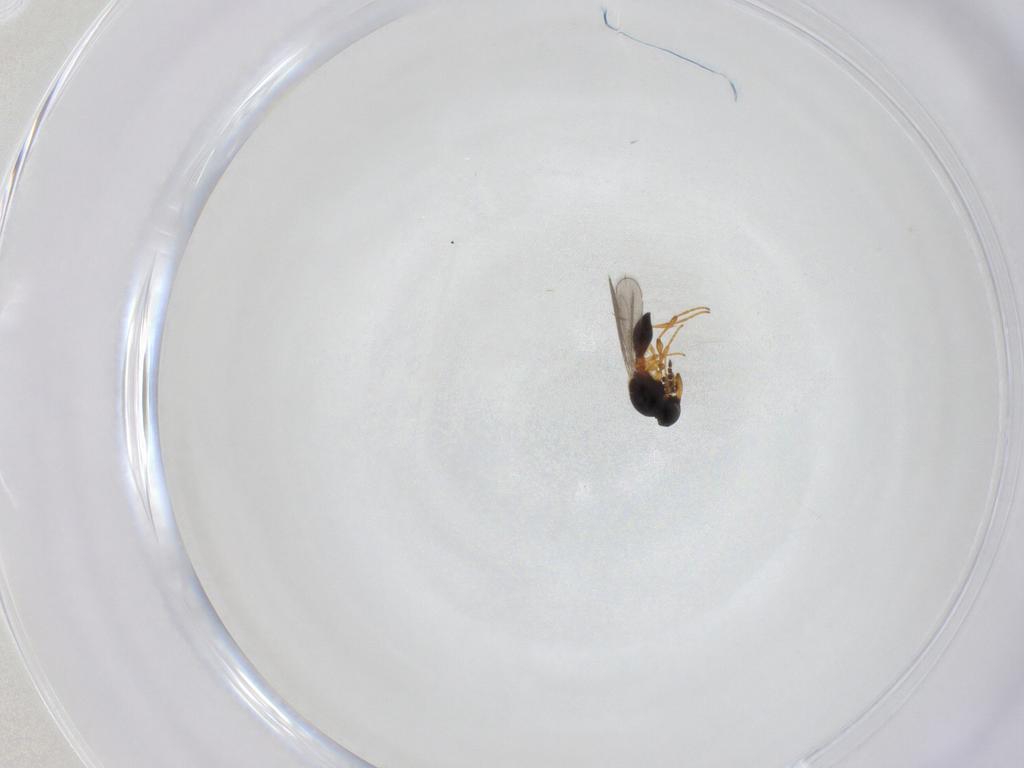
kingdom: Animalia
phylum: Arthropoda
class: Insecta
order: Hymenoptera
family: Platygastridae
